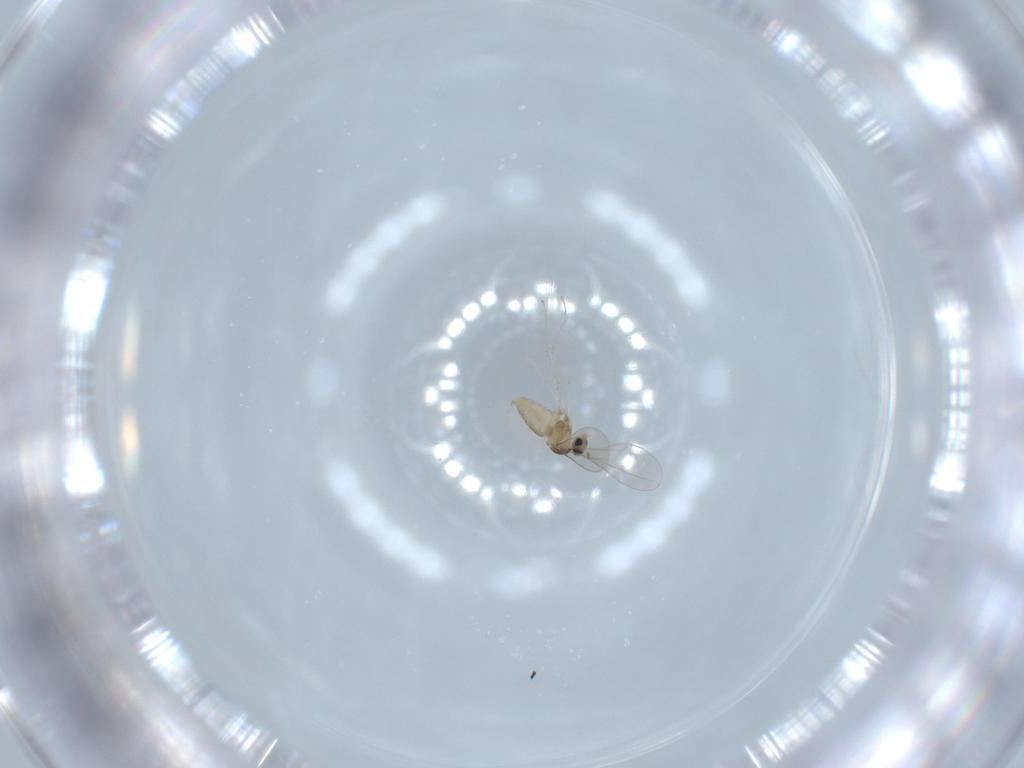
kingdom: Animalia
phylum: Arthropoda
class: Insecta
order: Diptera
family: Cecidomyiidae
